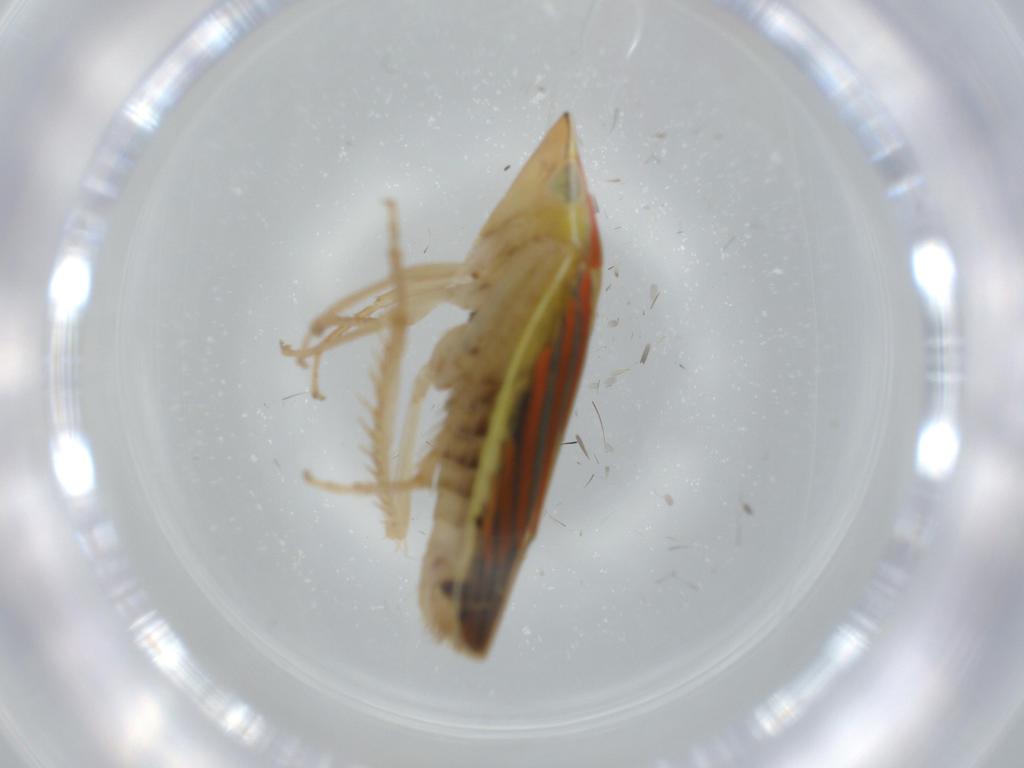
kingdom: Animalia
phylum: Arthropoda
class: Insecta
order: Hemiptera
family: Cicadellidae
